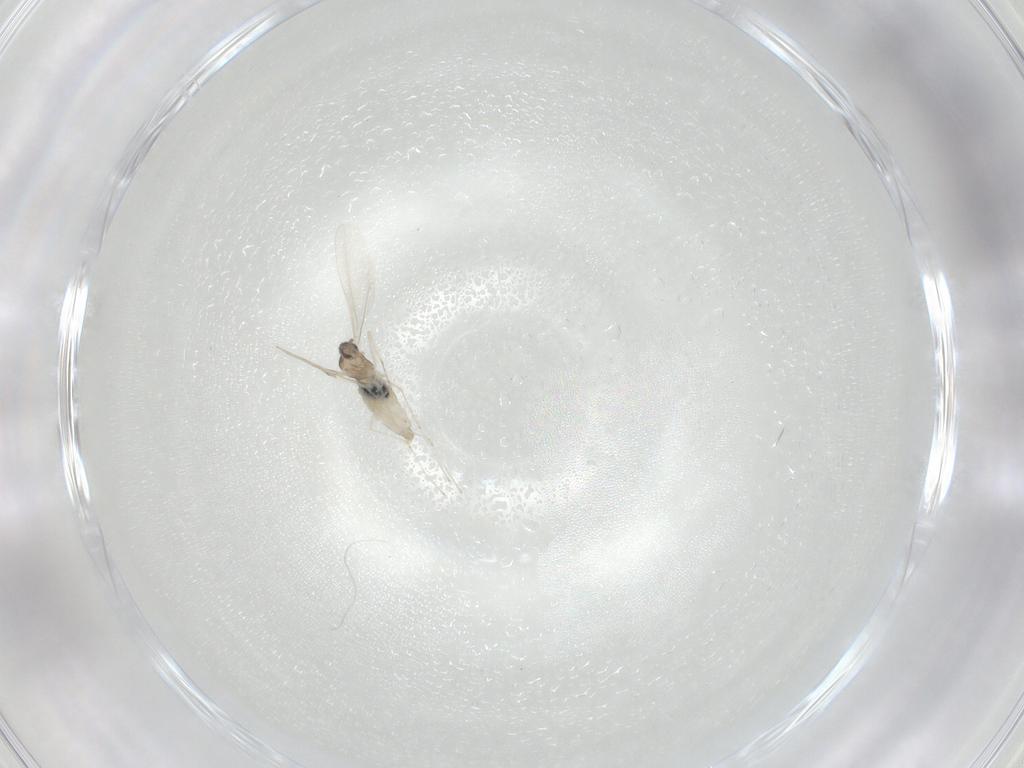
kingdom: Animalia
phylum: Arthropoda
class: Insecta
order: Diptera
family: Cecidomyiidae
